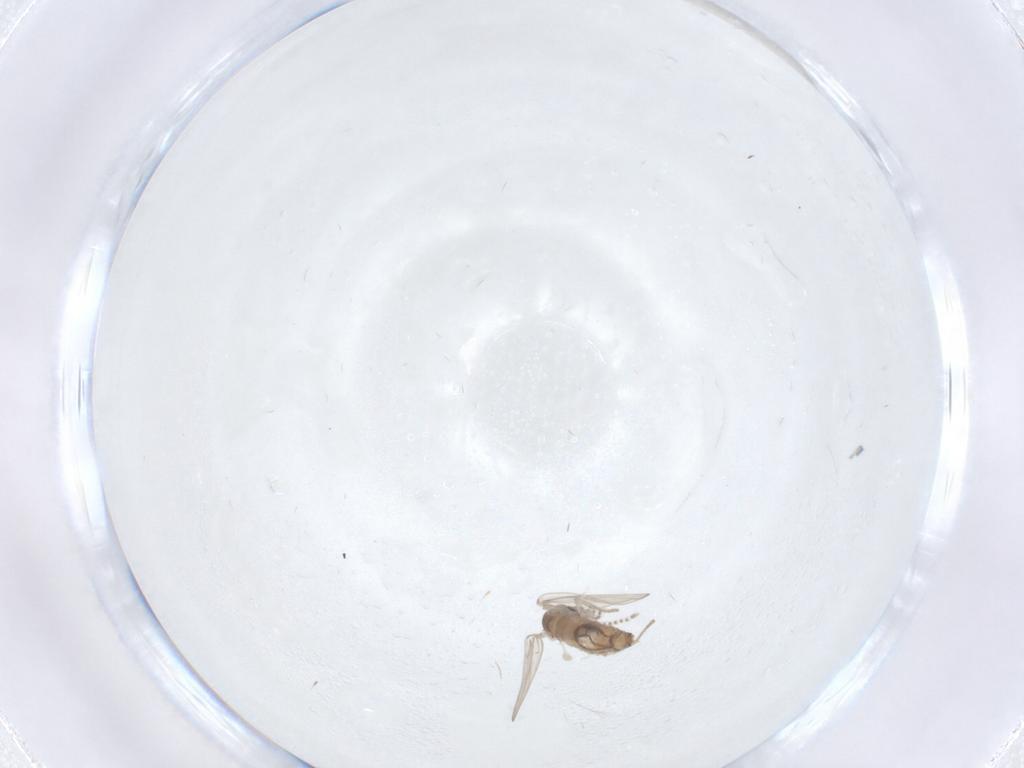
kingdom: Animalia
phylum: Arthropoda
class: Insecta
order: Diptera
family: Psychodidae
